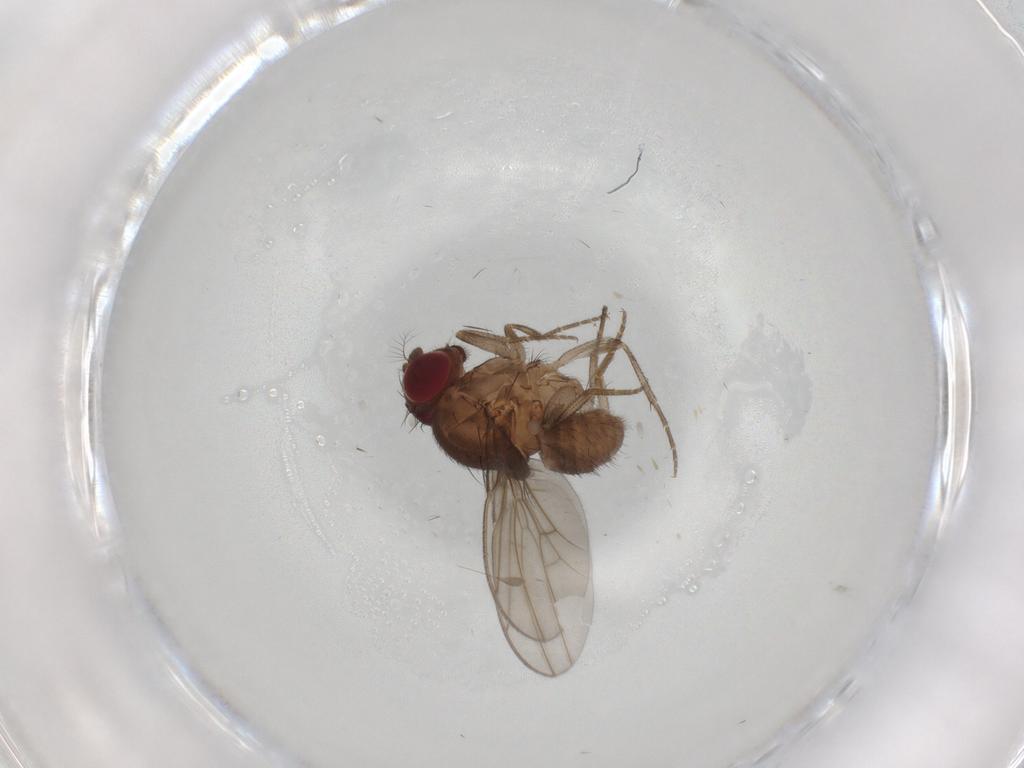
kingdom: Animalia
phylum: Arthropoda
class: Insecta
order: Diptera
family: Drosophilidae
